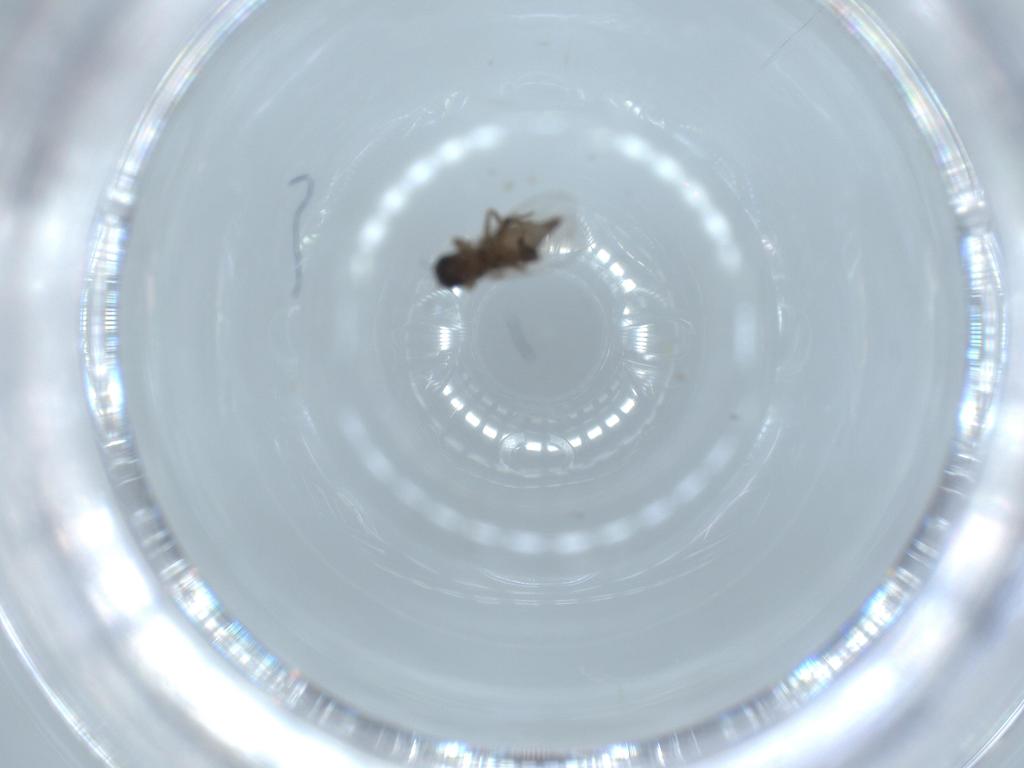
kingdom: Animalia
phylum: Arthropoda
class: Insecta
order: Diptera
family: Phoridae
